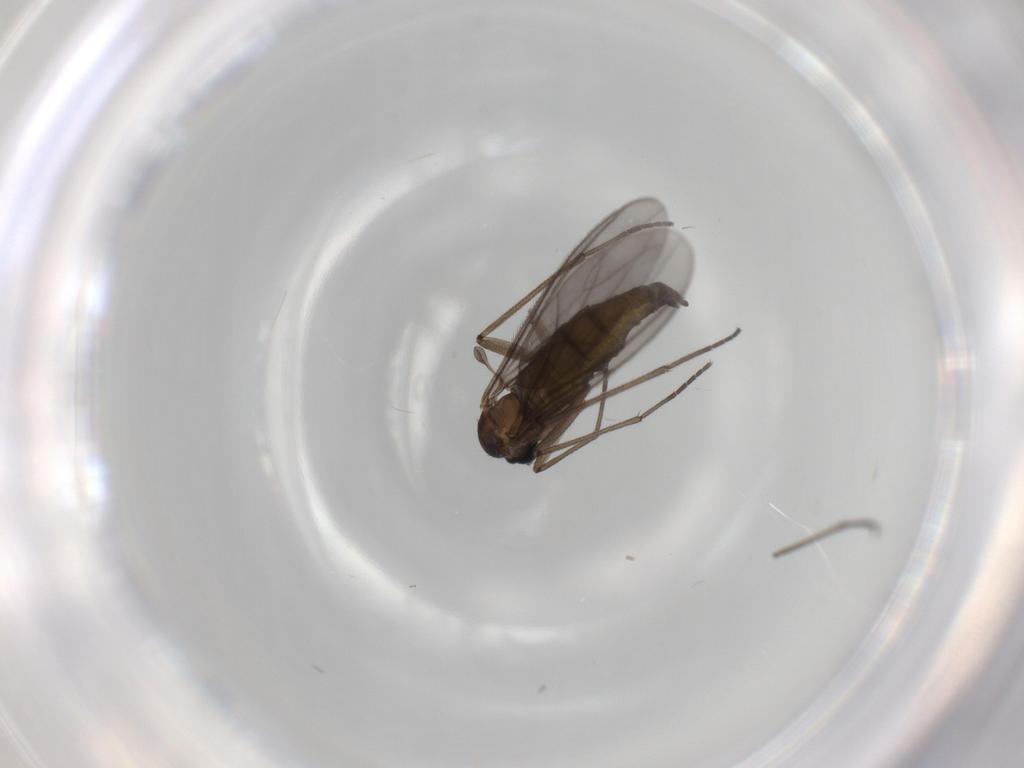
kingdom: Animalia
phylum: Arthropoda
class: Insecta
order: Diptera
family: Sciaridae
